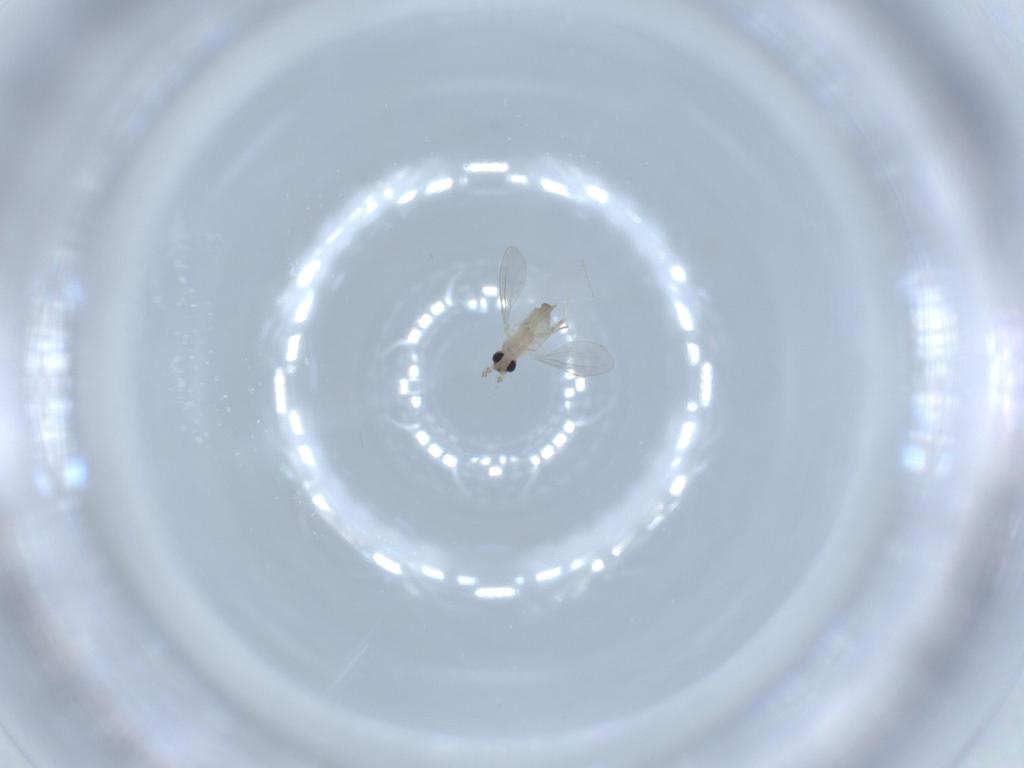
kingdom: Animalia
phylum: Arthropoda
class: Insecta
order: Diptera
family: Cecidomyiidae
